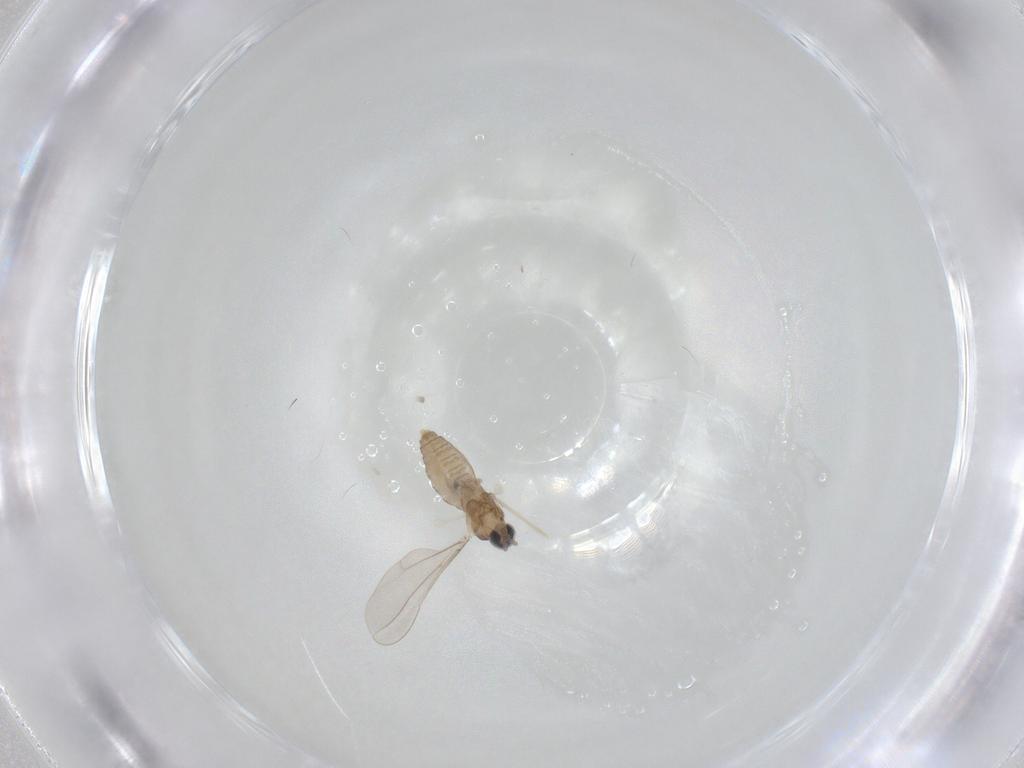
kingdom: Animalia
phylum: Arthropoda
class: Insecta
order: Diptera
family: Cecidomyiidae
